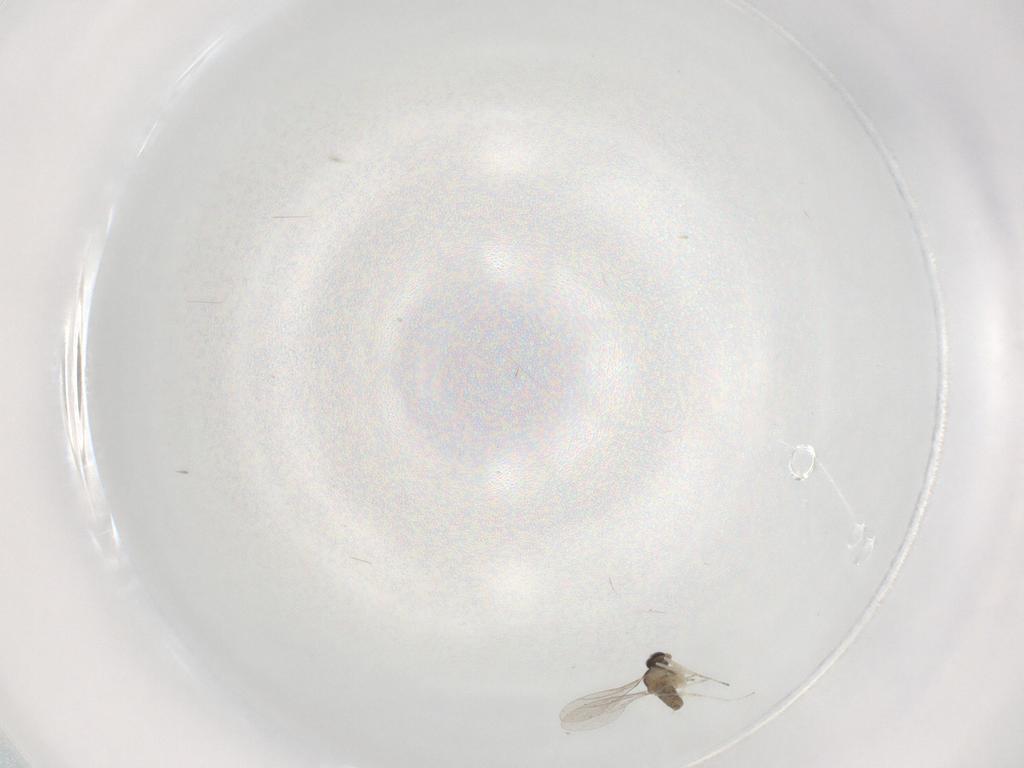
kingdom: Animalia
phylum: Arthropoda
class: Insecta
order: Diptera
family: Cecidomyiidae
